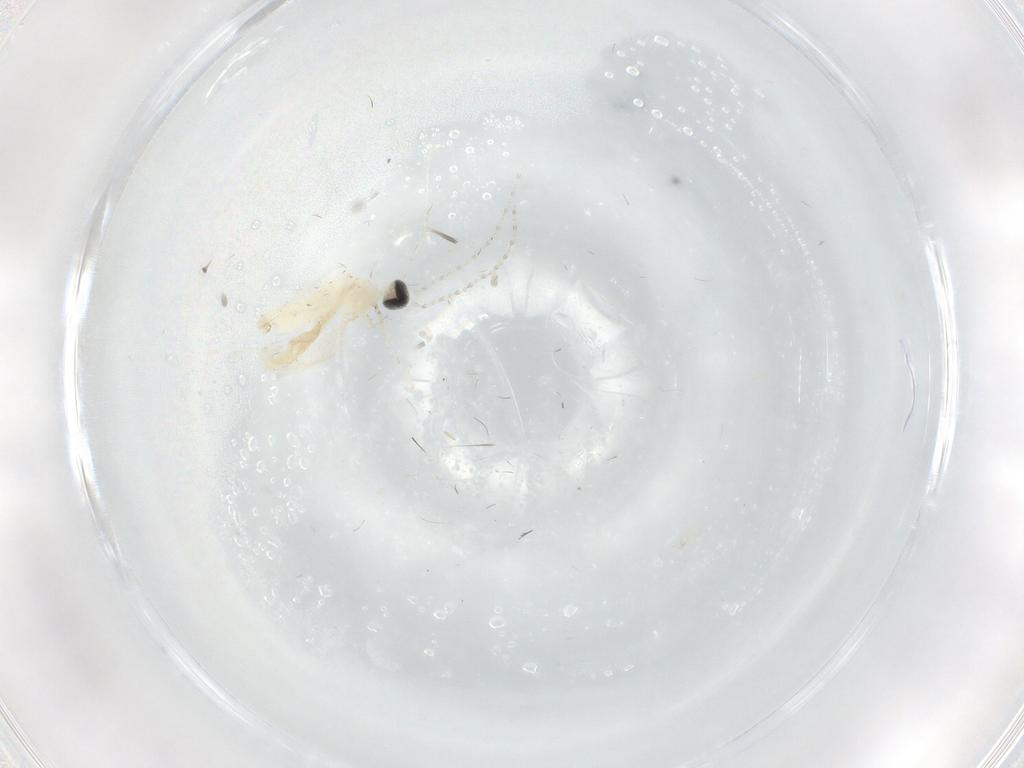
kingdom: Animalia
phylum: Arthropoda
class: Insecta
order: Diptera
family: Cecidomyiidae
